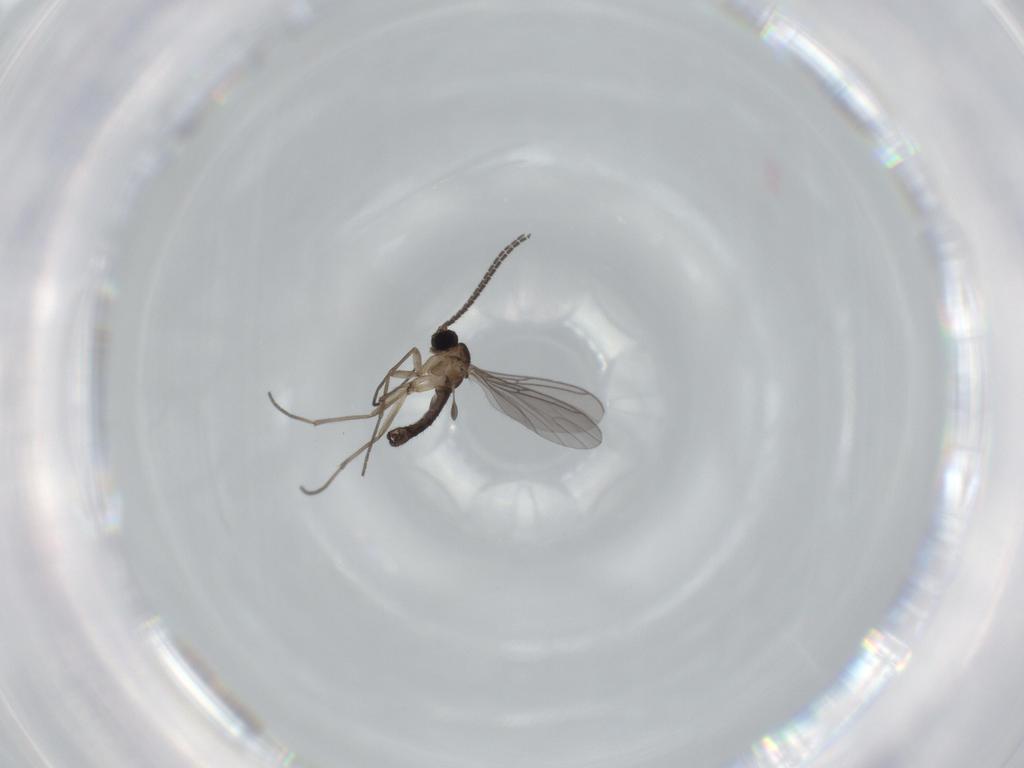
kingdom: Animalia
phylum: Arthropoda
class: Insecta
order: Diptera
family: Sciaridae
